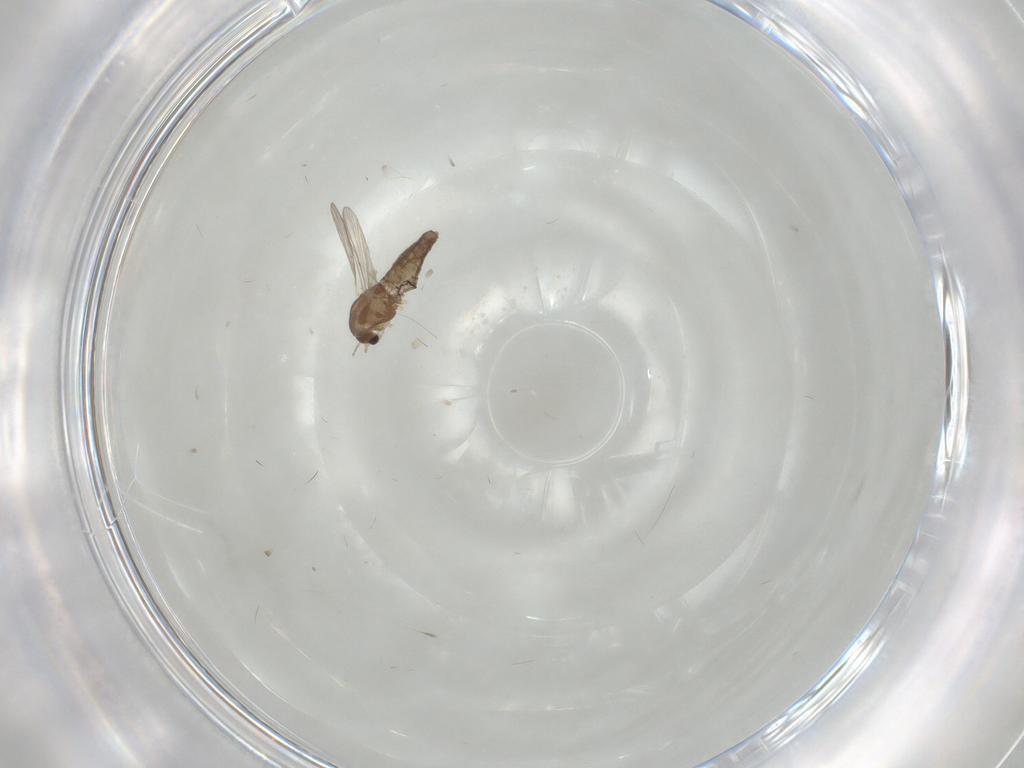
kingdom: Animalia
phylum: Arthropoda
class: Insecta
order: Diptera
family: Chironomidae
